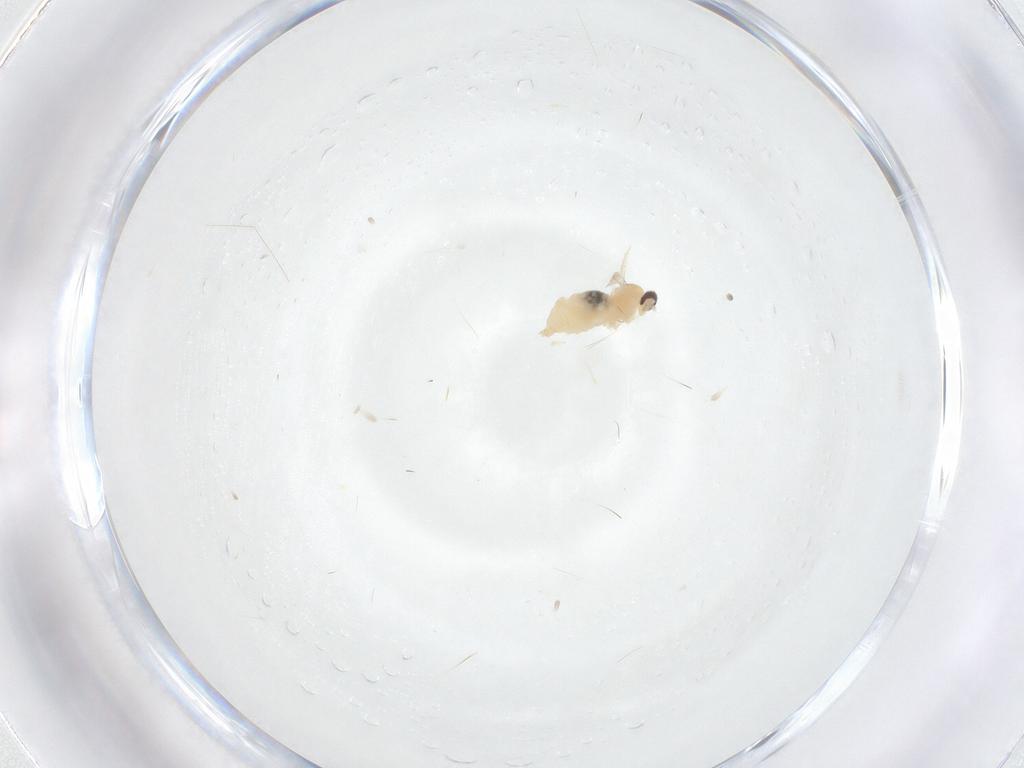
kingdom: Animalia
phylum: Arthropoda
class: Insecta
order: Diptera
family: Cecidomyiidae
